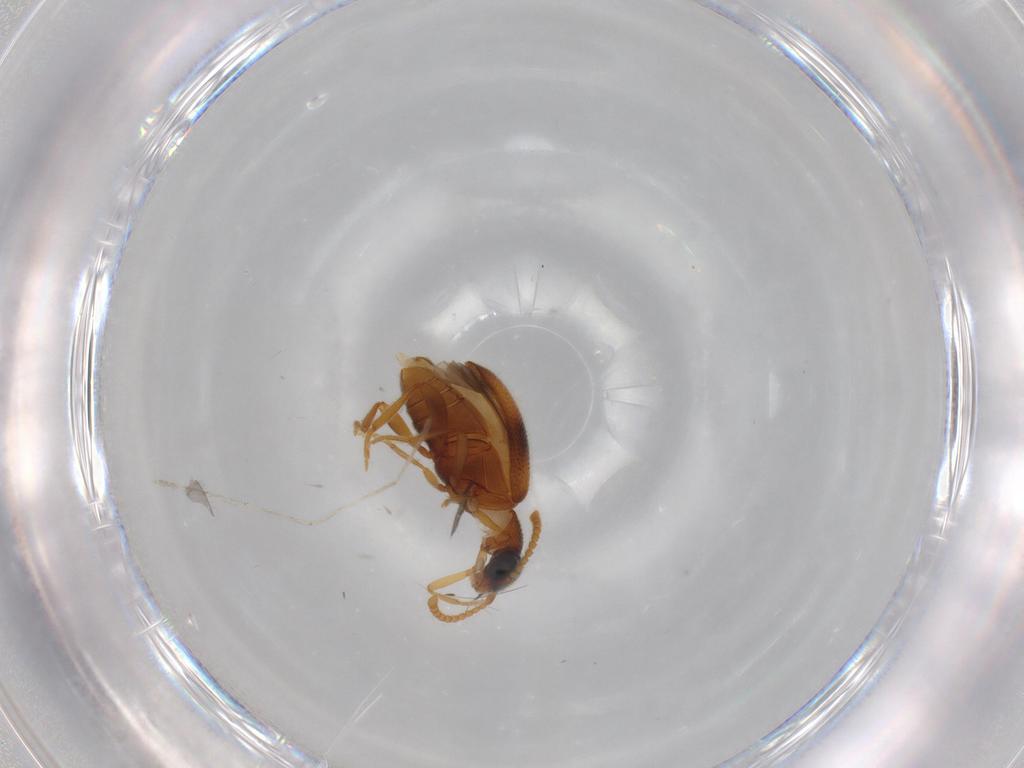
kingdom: Animalia
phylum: Arthropoda
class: Insecta
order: Coleoptera
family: Aderidae
